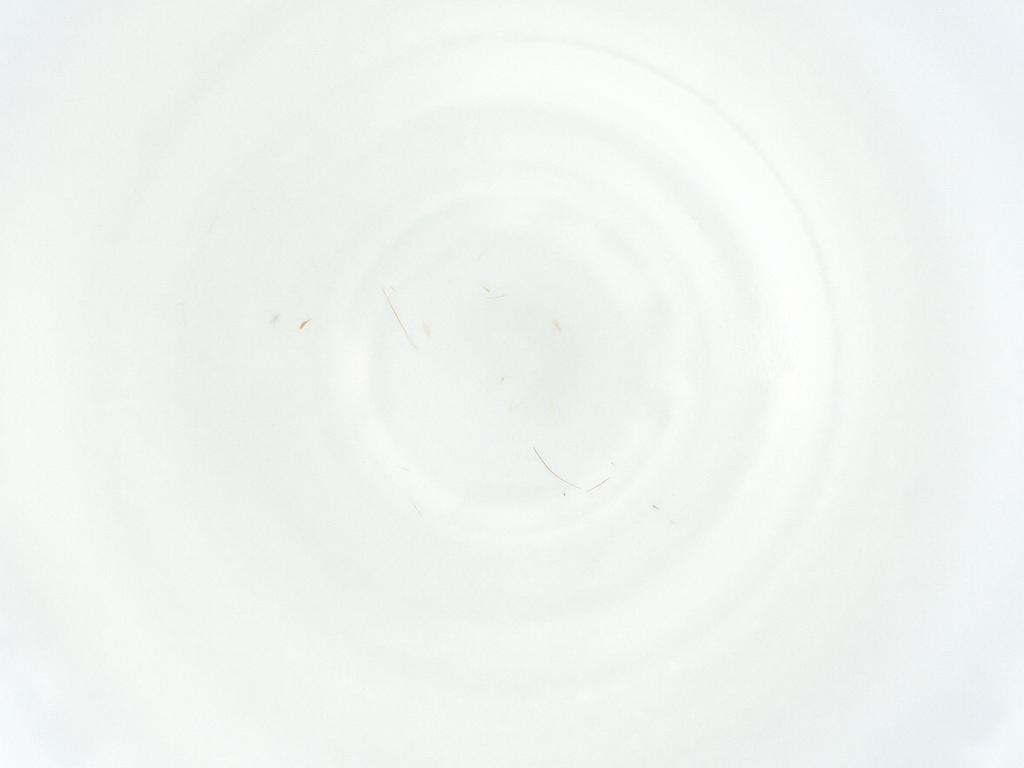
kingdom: Animalia
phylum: Arthropoda
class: Insecta
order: Hemiptera
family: Aleyrodidae
